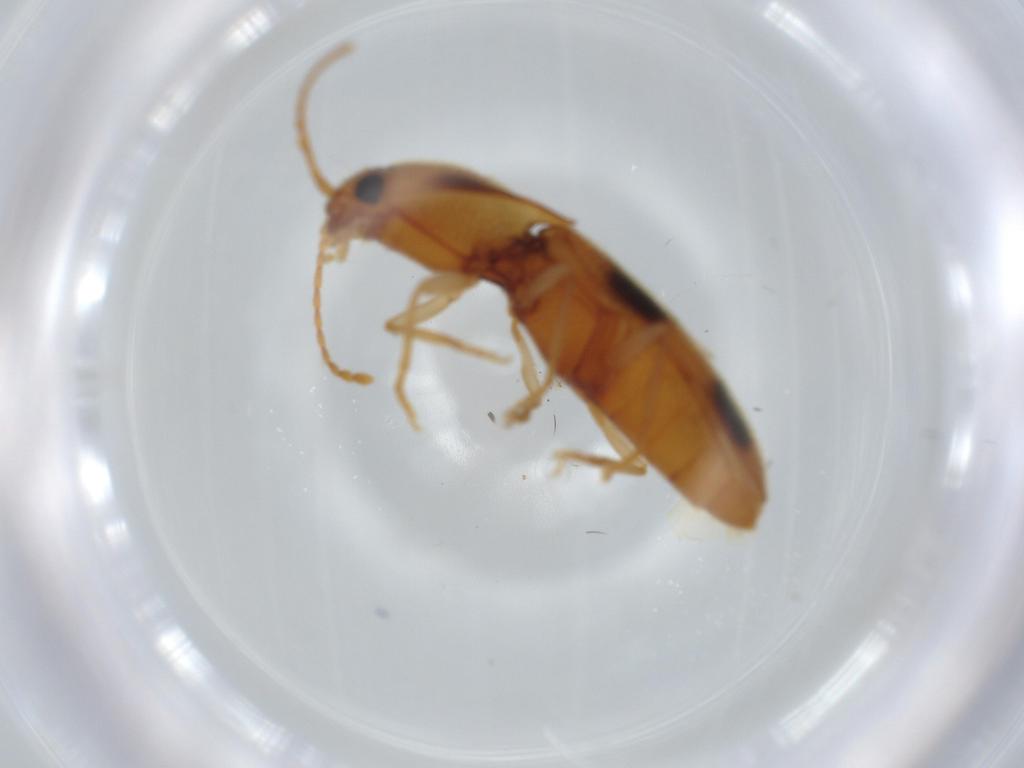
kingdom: Animalia
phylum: Arthropoda
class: Insecta
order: Coleoptera
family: Elateridae
